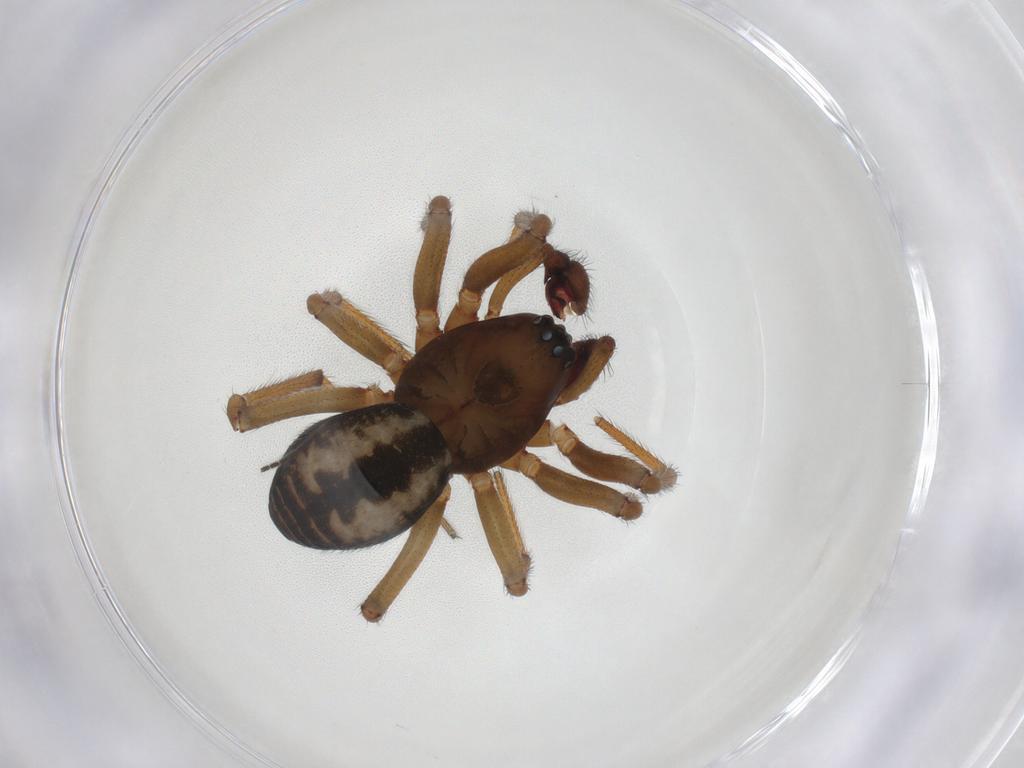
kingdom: Animalia
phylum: Arthropoda
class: Arachnida
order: Araneae
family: Linyphiidae
